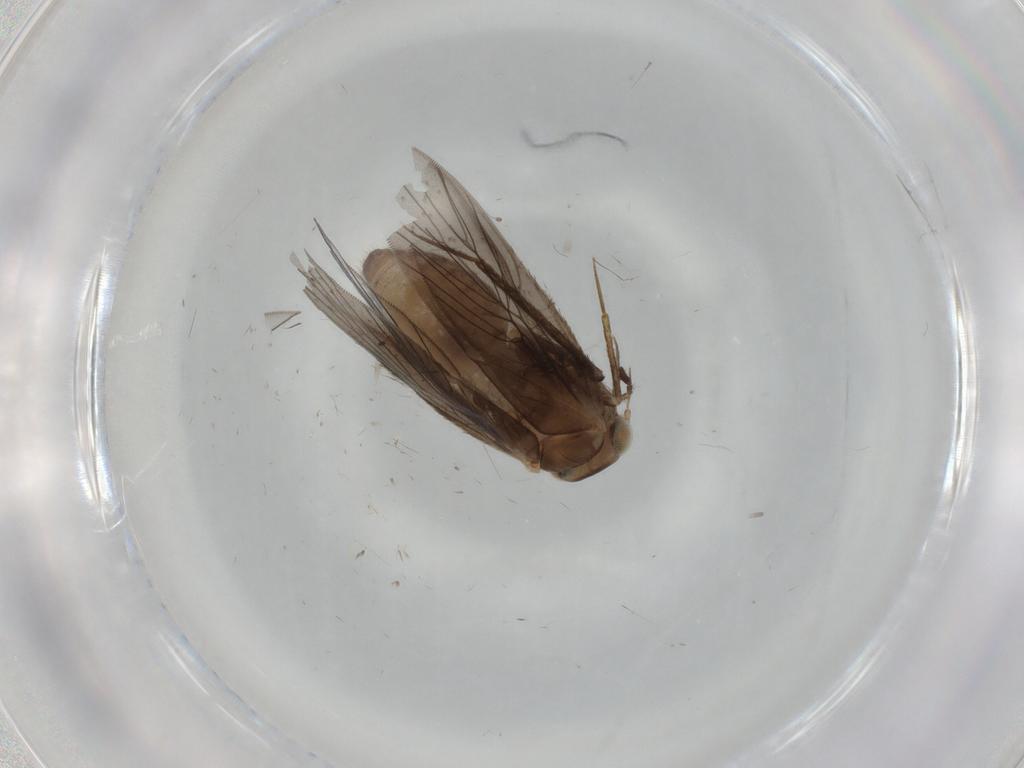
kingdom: Animalia
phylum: Arthropoda
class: Insecta
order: Psocodea
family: Lepidopsocidae
